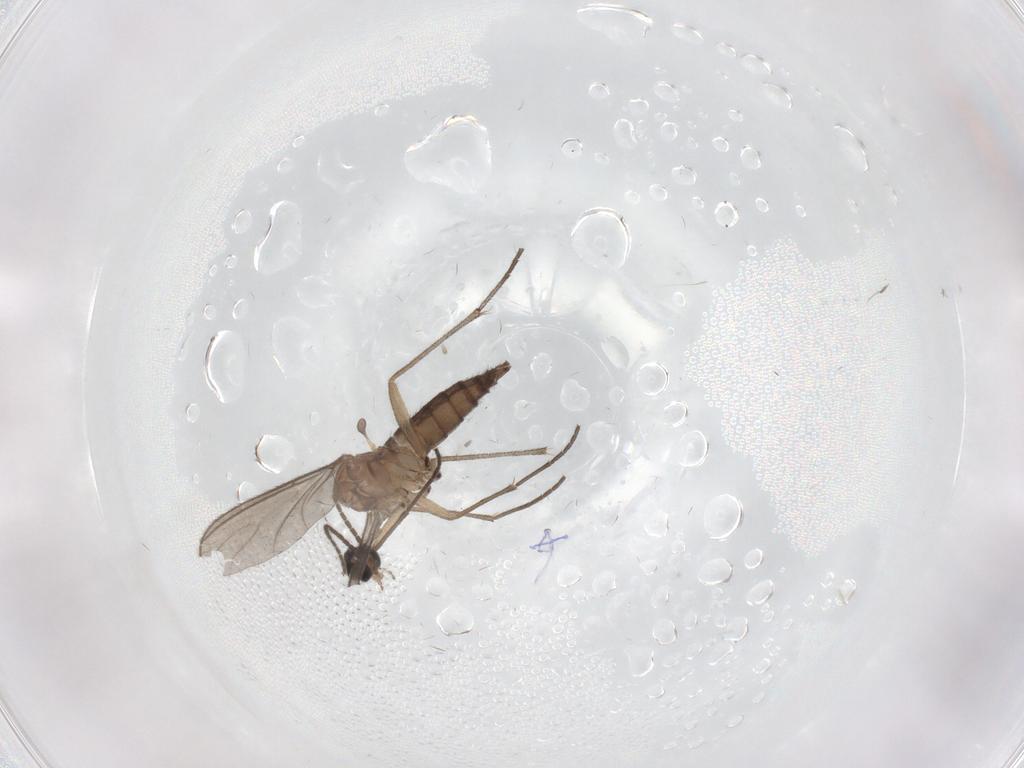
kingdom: Animalia
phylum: Arthropoda
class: Insecta
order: Diptera
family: Chironomidae
